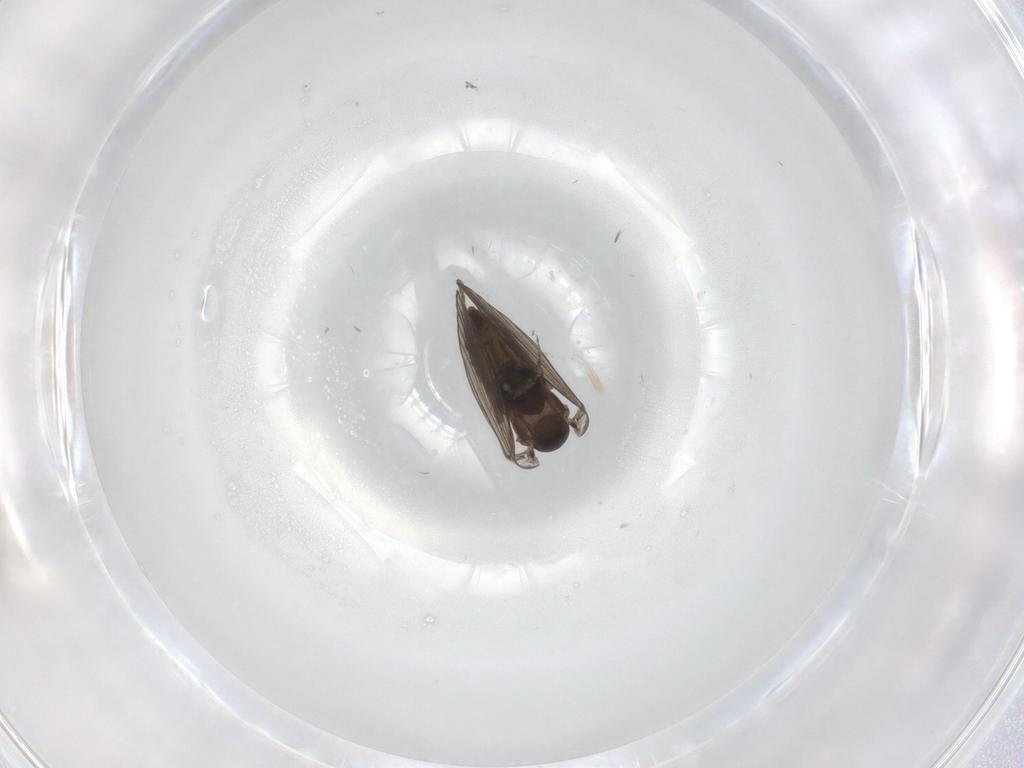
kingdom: Animalia
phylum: Arthropoda
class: Insecta
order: Diptera
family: Psychodidae
